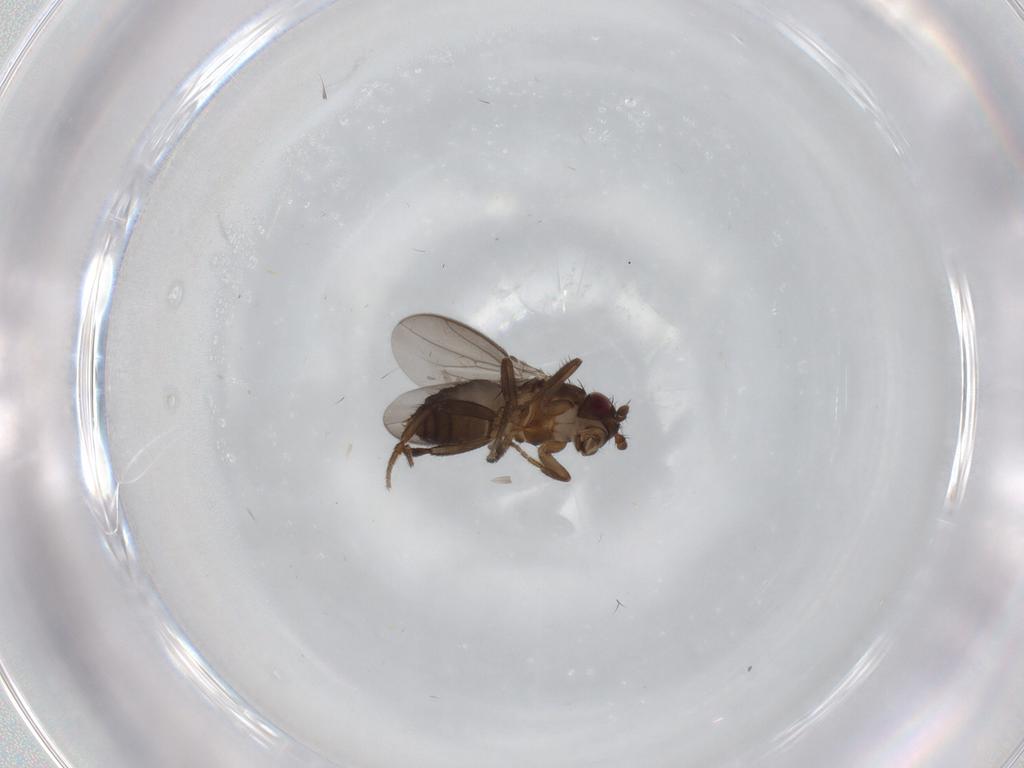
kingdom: Animalia
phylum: Arthropoda
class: Insecta
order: Diptera
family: Sphaeroceridae
